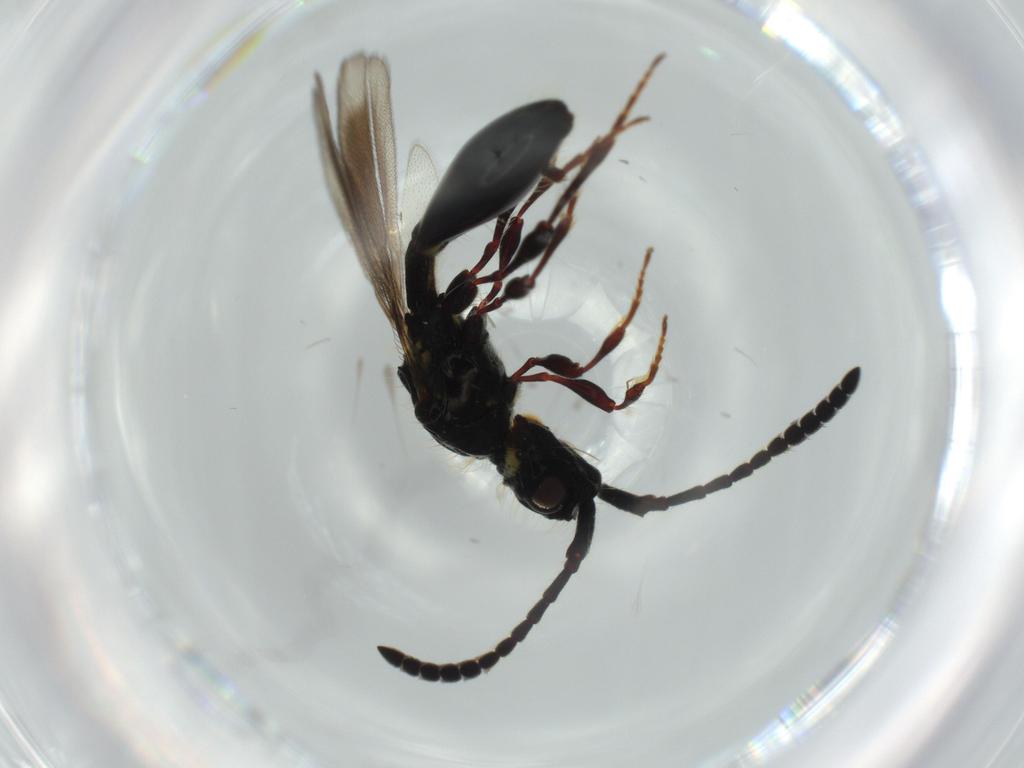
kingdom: Animalia
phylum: Arthropoda
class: Insecta
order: Hymenoptera
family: Diapriidae
